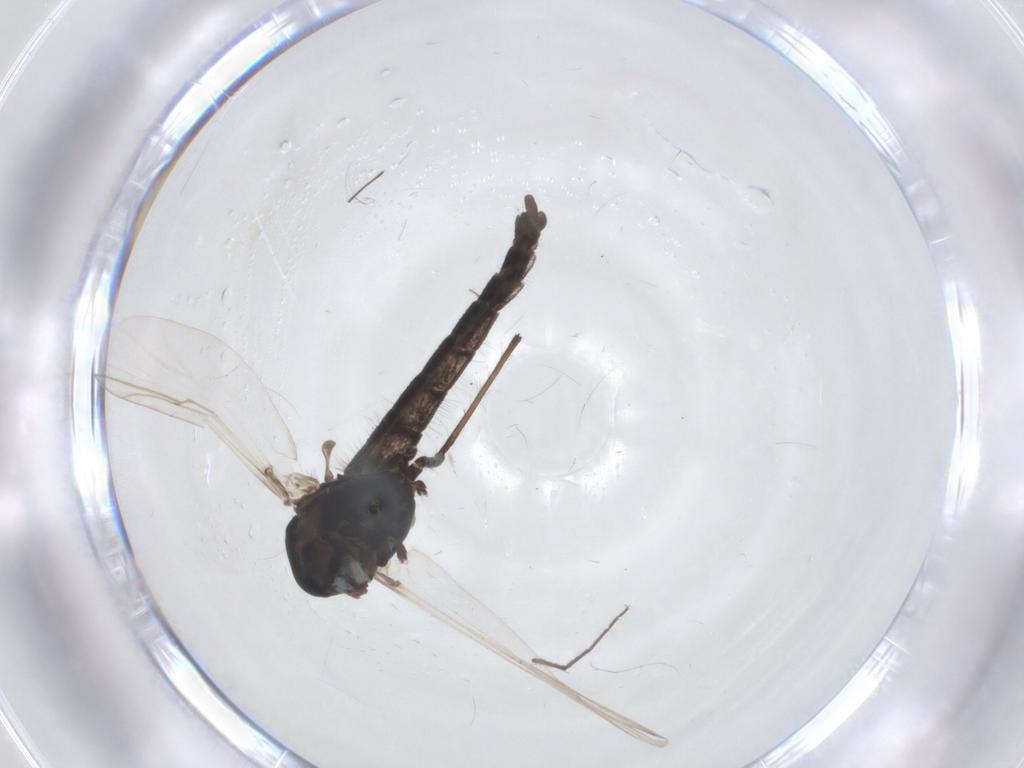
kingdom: Animalia
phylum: Arthropoda
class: Insecta
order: Diptera
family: Chironomidae
